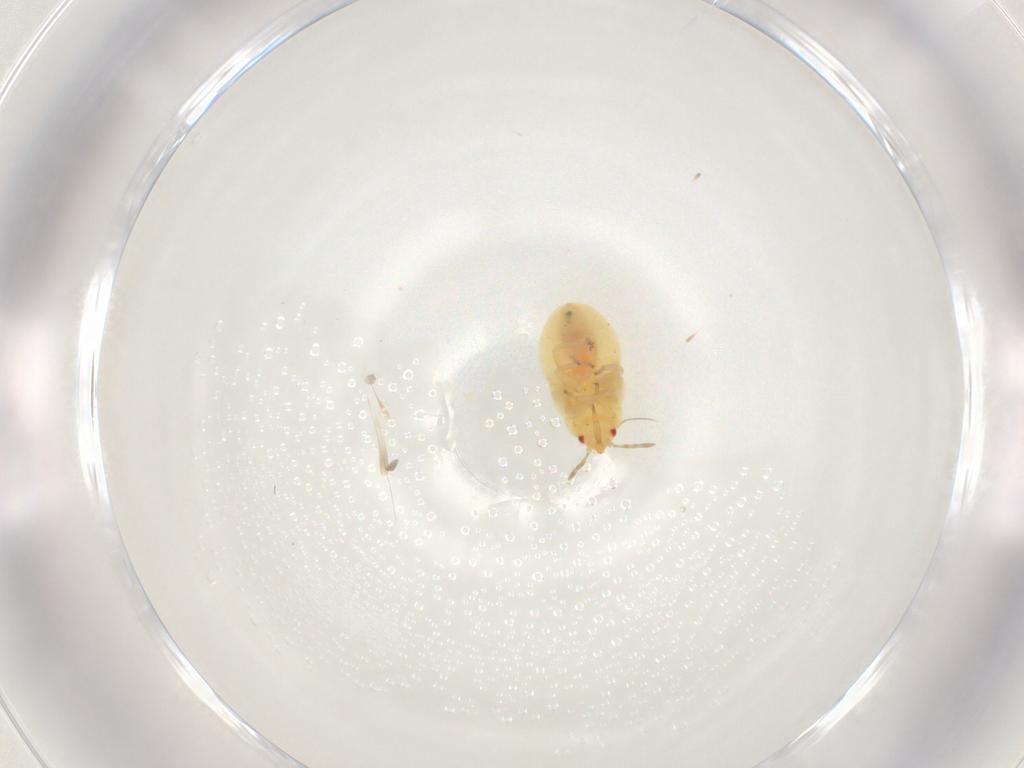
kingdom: Animalia
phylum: Arthropoda
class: Insecta
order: Hemiptera
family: Anthocoridae
